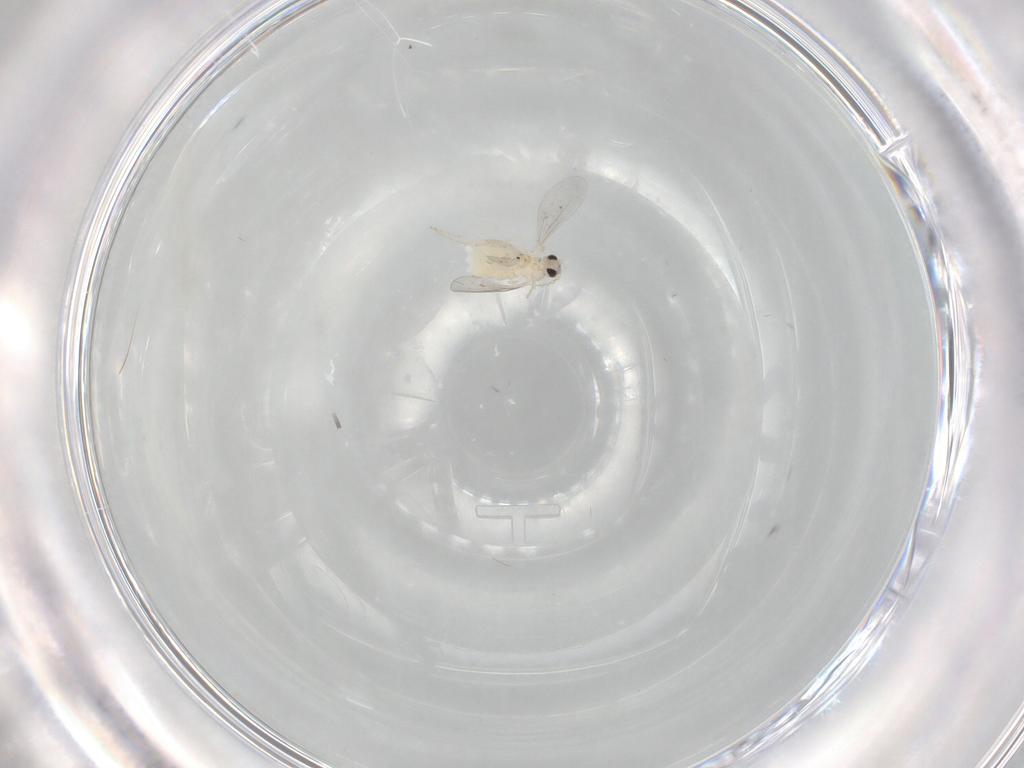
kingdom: Animalia
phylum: Arthropoda
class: Insecta
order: Diptera
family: Cecidomyiidae
